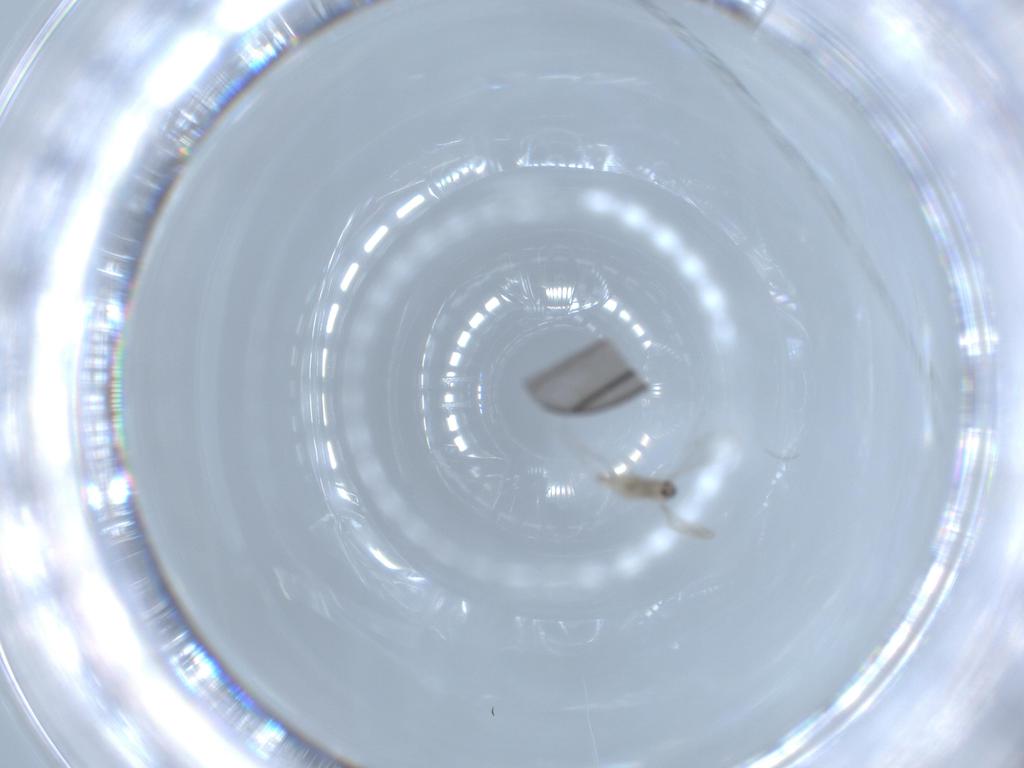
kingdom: Animalia
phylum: Arthropoda
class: Insecta
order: Diptera
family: Sciaridae
